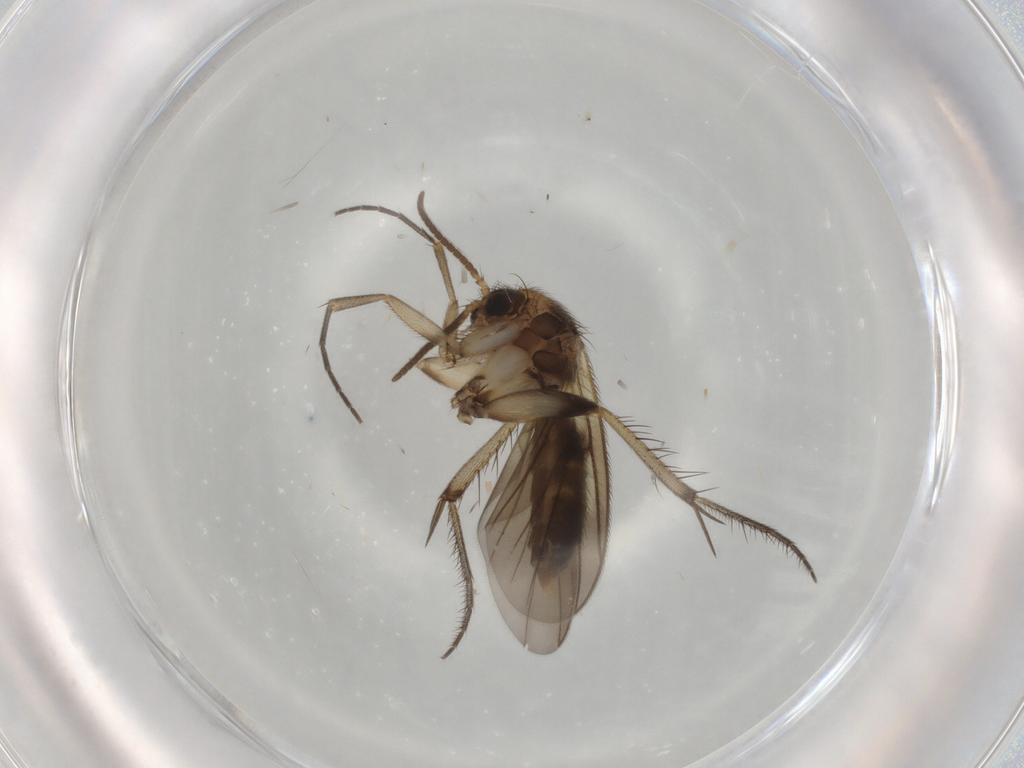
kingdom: Animalia
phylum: Arthropoda
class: Insecta
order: Diptera
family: Mycetophilidae
